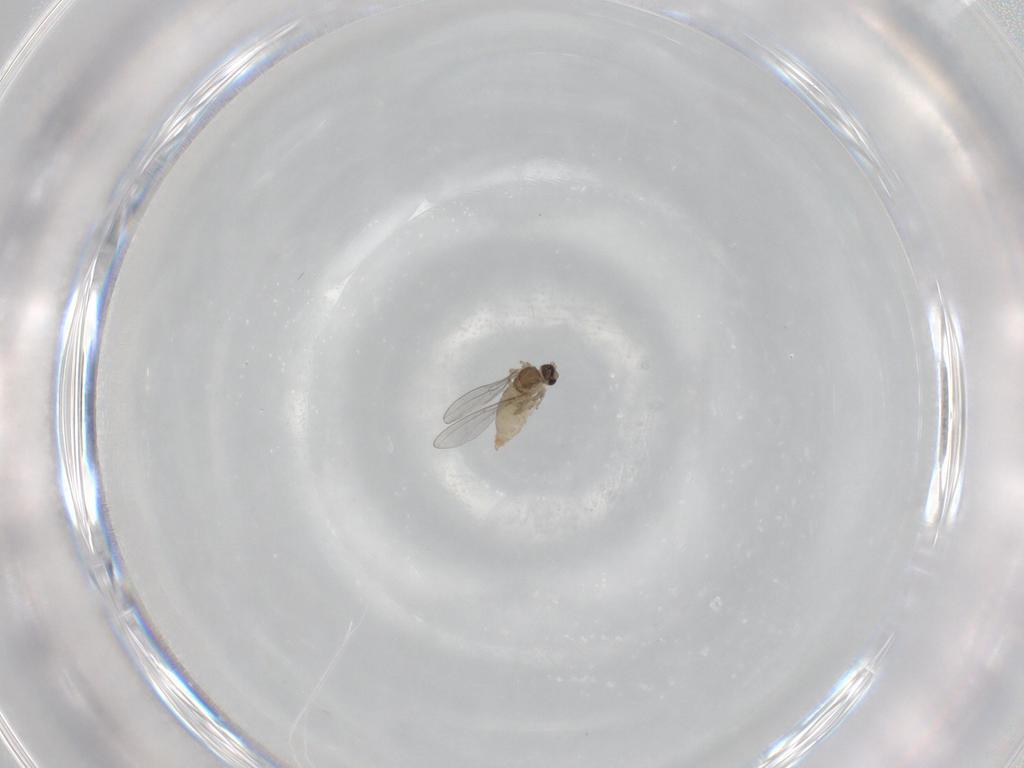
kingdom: Animalia
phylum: Arthropoda
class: Insecta
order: Diptera
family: Phoridae
